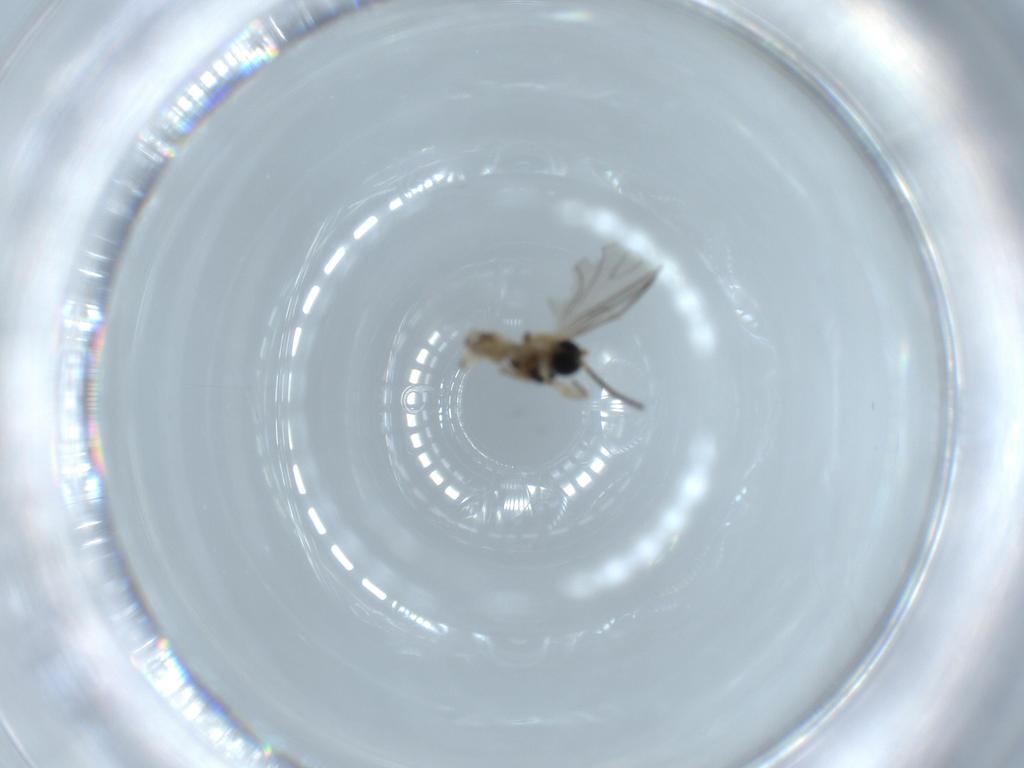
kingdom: Animalia
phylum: Arthropoda
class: Insecta
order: Diptera
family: Sciaridae
